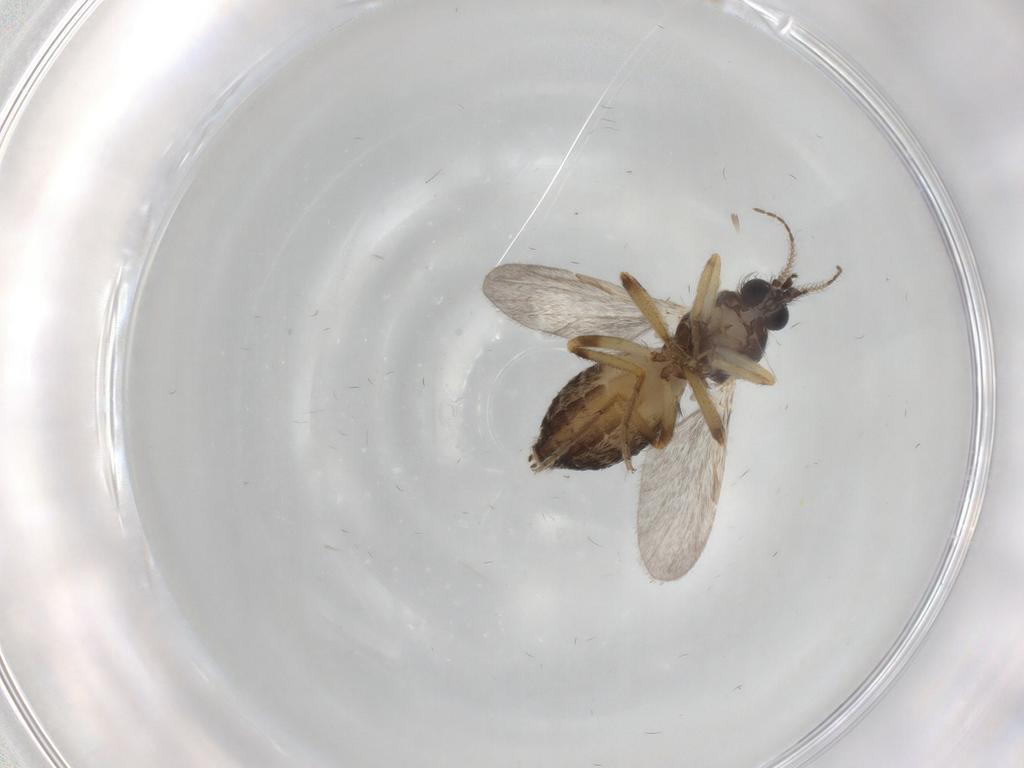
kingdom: Animalia
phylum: Arthropoda
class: Insecta
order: Diptera
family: Ceratopogonidae
